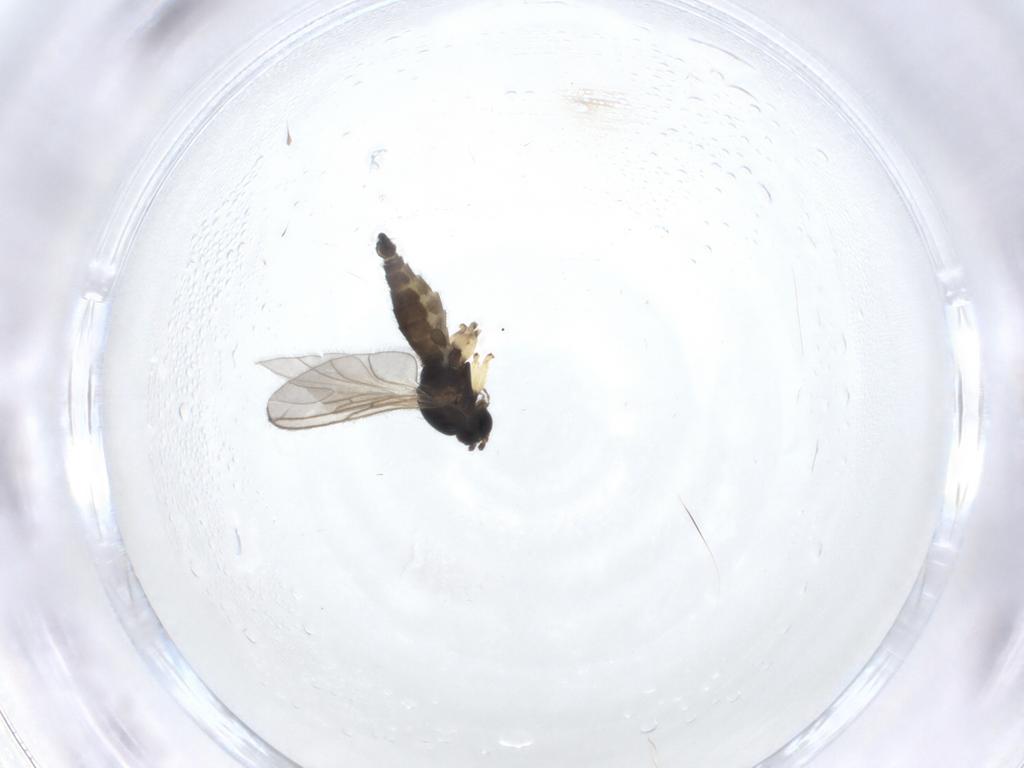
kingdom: Animalia
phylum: Arthropoda
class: Insecta
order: Diptera
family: Sciaridae
